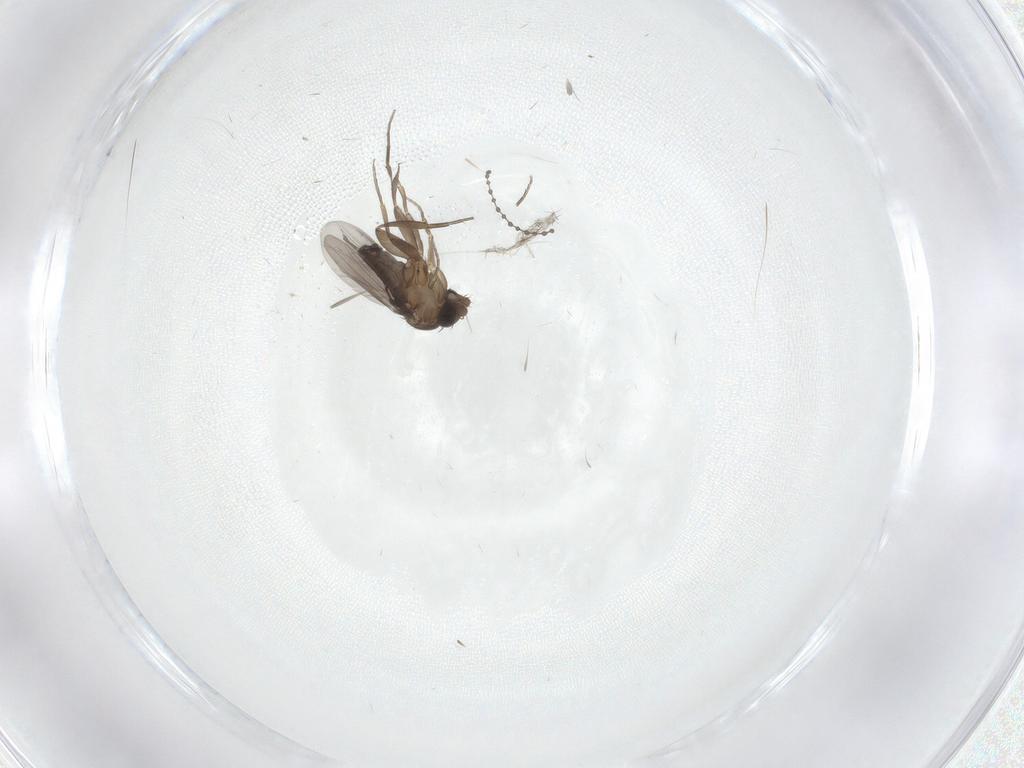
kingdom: Animalia
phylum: Arthropoda
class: Insecta
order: Diptera
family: Phoridae
